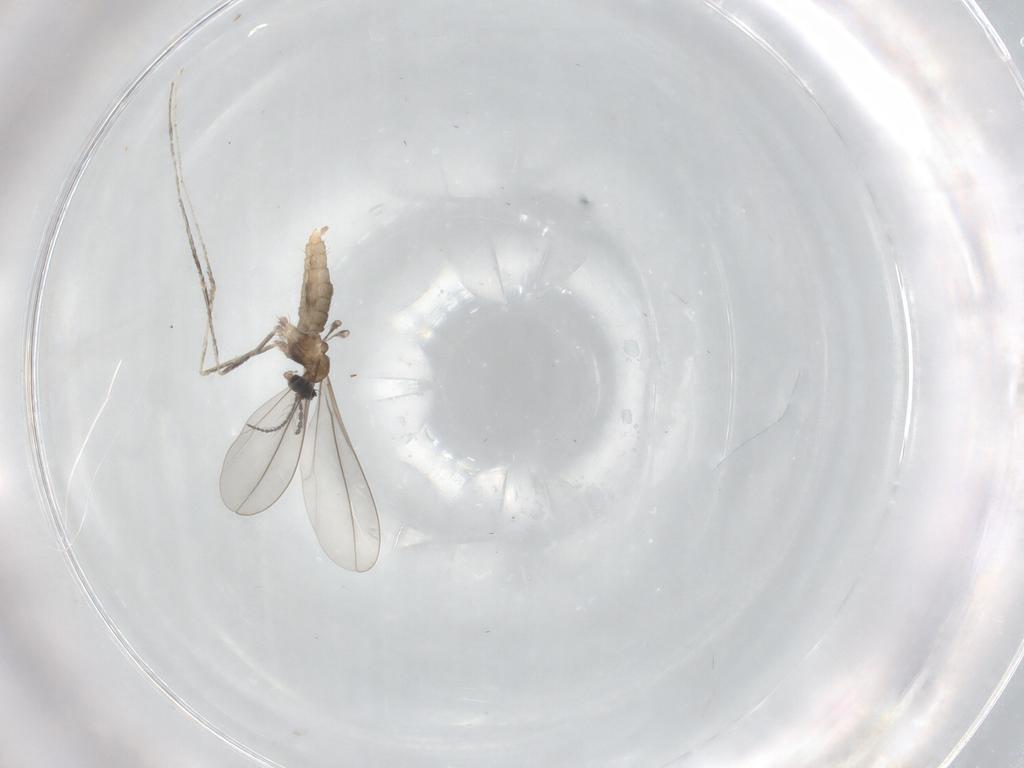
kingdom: Animalia
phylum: Arthropoda
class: Insecta
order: Diptera
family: Cecidomyiidae
